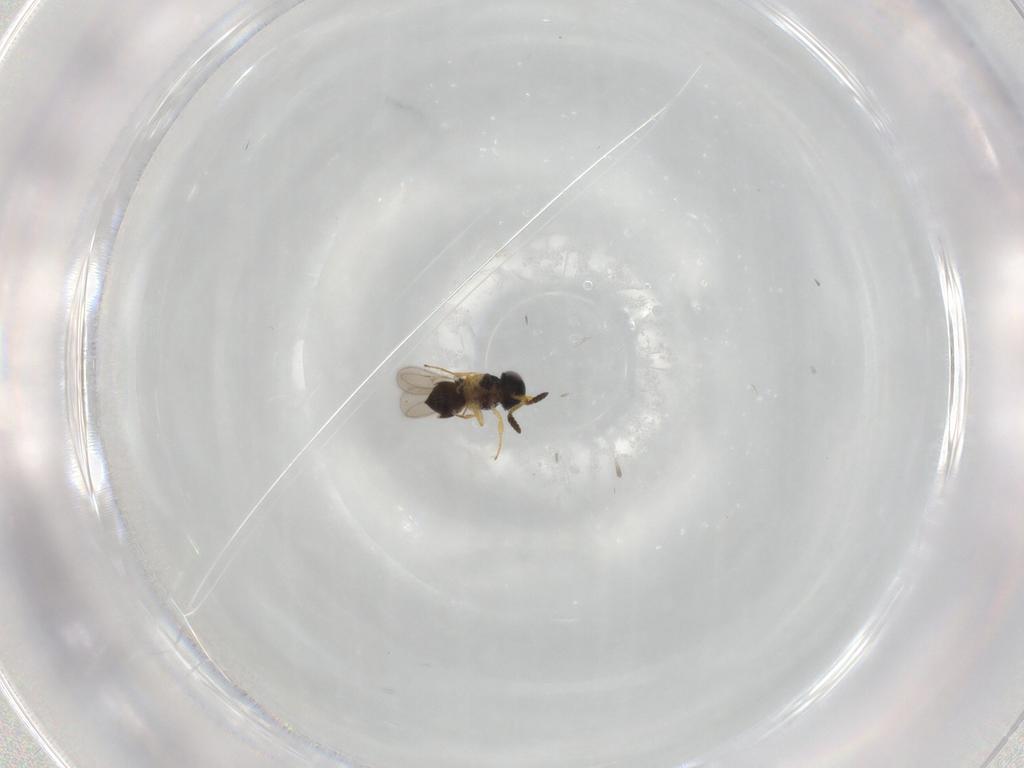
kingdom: Animalia
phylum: Arthropoda
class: Insecta
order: Hymenoptera
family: Scelionidae
